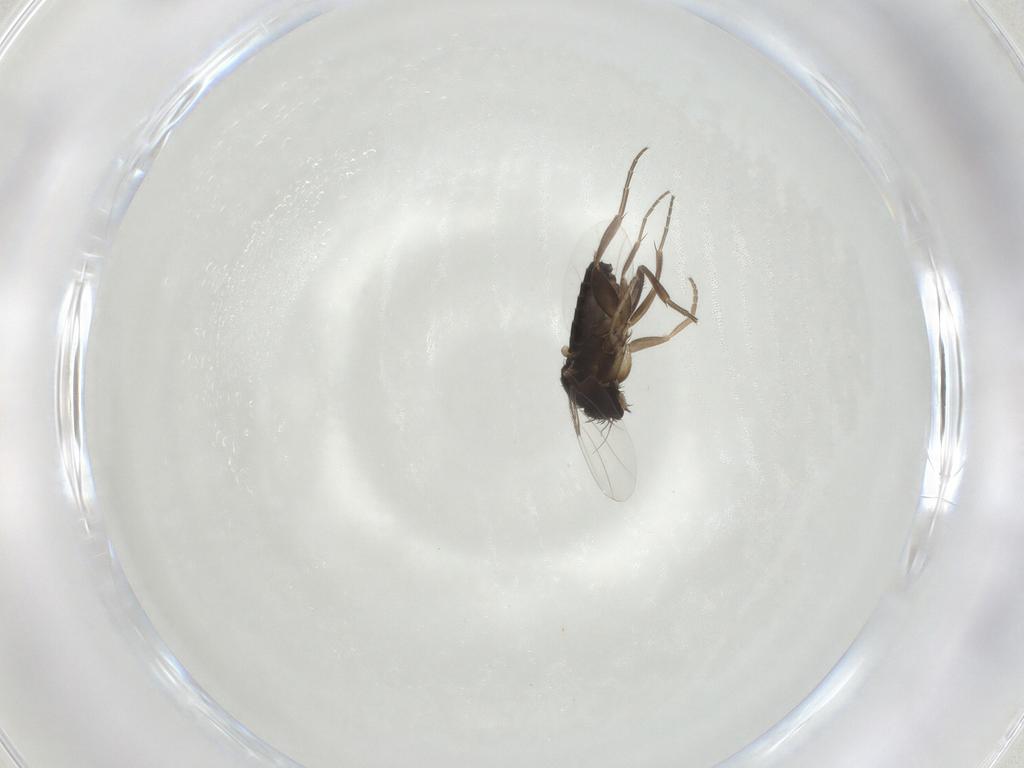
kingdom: Animalia
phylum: Arthropoda
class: Insecta
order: Diptera
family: Phoridae
